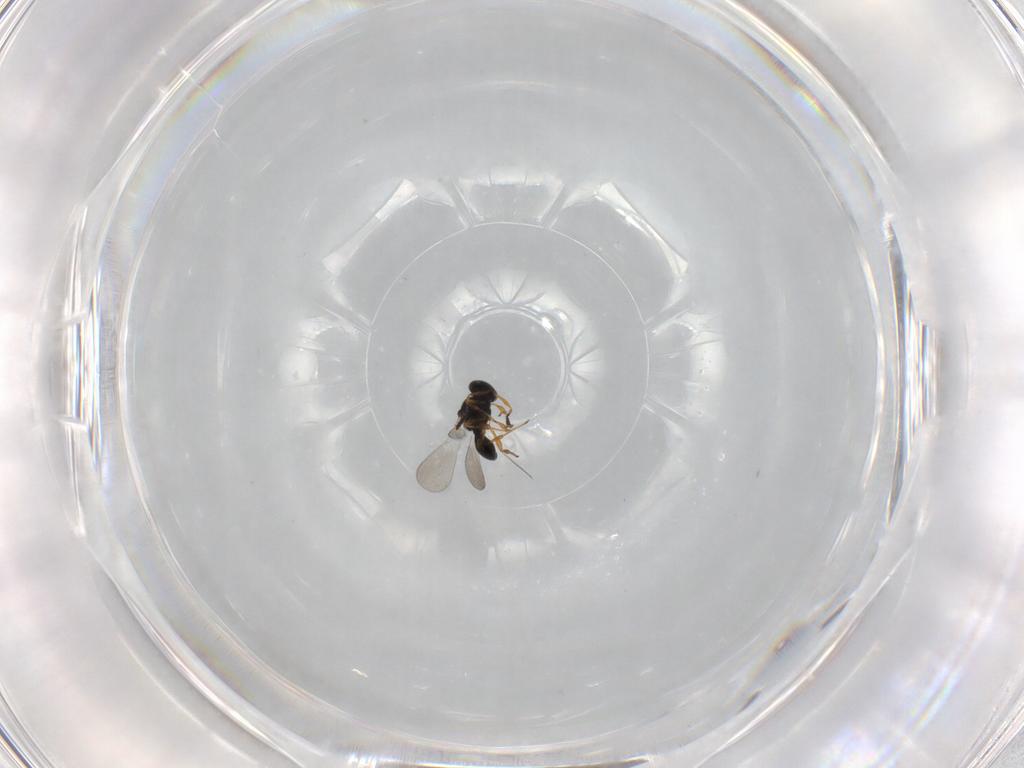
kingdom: Animalia
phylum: Arthropoda
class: Insecta
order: Hymenoptera
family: Platygastridae
